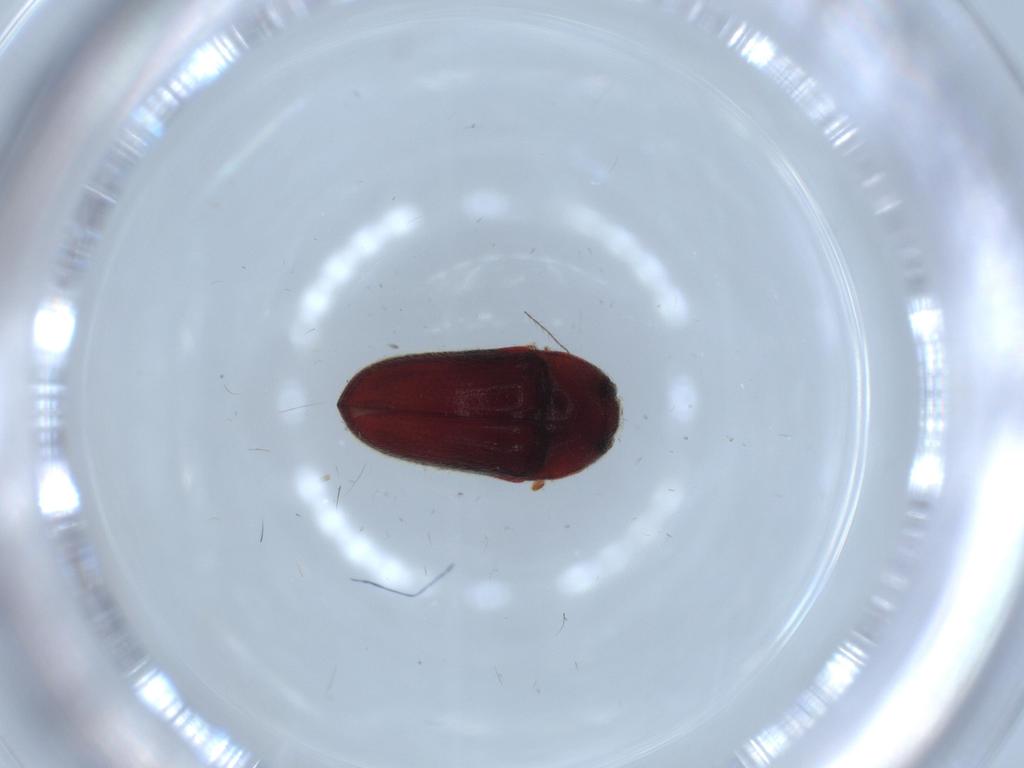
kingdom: Animalia
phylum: Arthropoda
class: Insecta
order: Coleoptera
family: Throscidae
